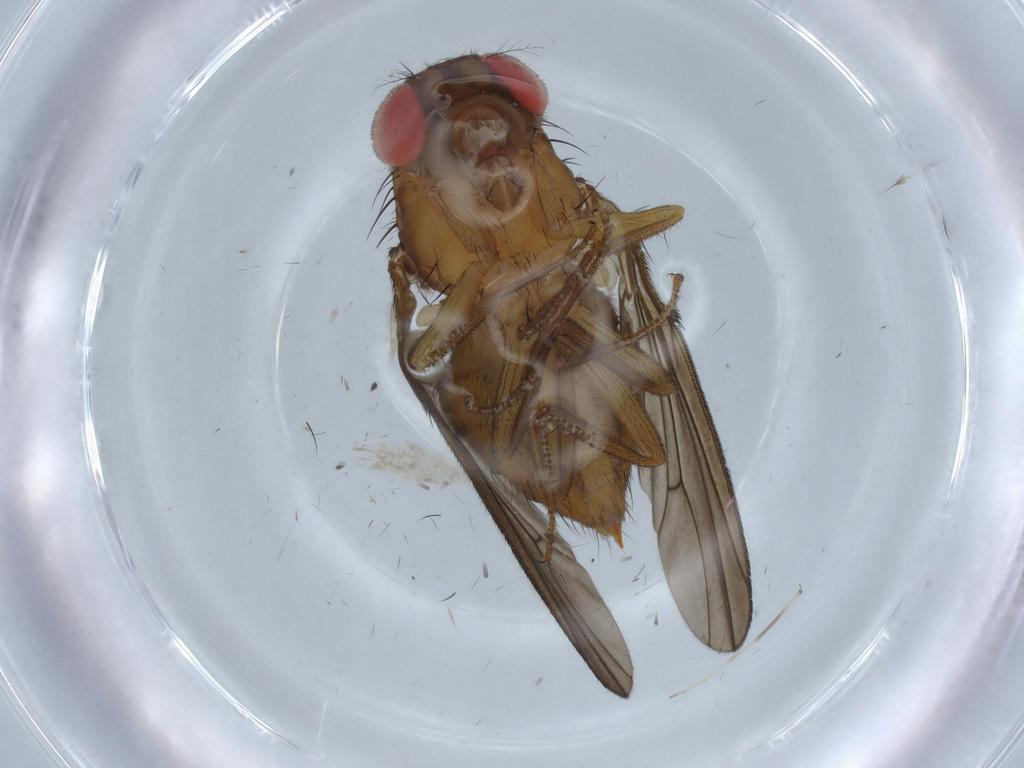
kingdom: Animalia
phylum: Arthropoda
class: Insecta
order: Diptera
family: Drosophilidae
